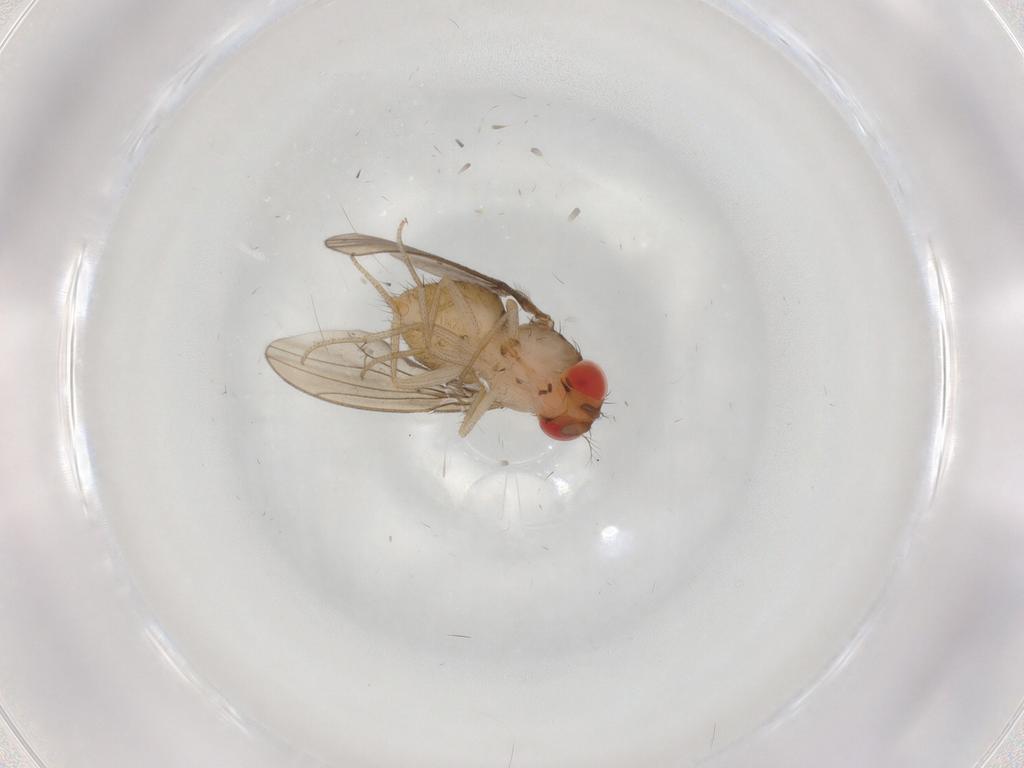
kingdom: Animalia
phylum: Arthropoda
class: Insecta
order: Diptera
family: Drosophilidae
